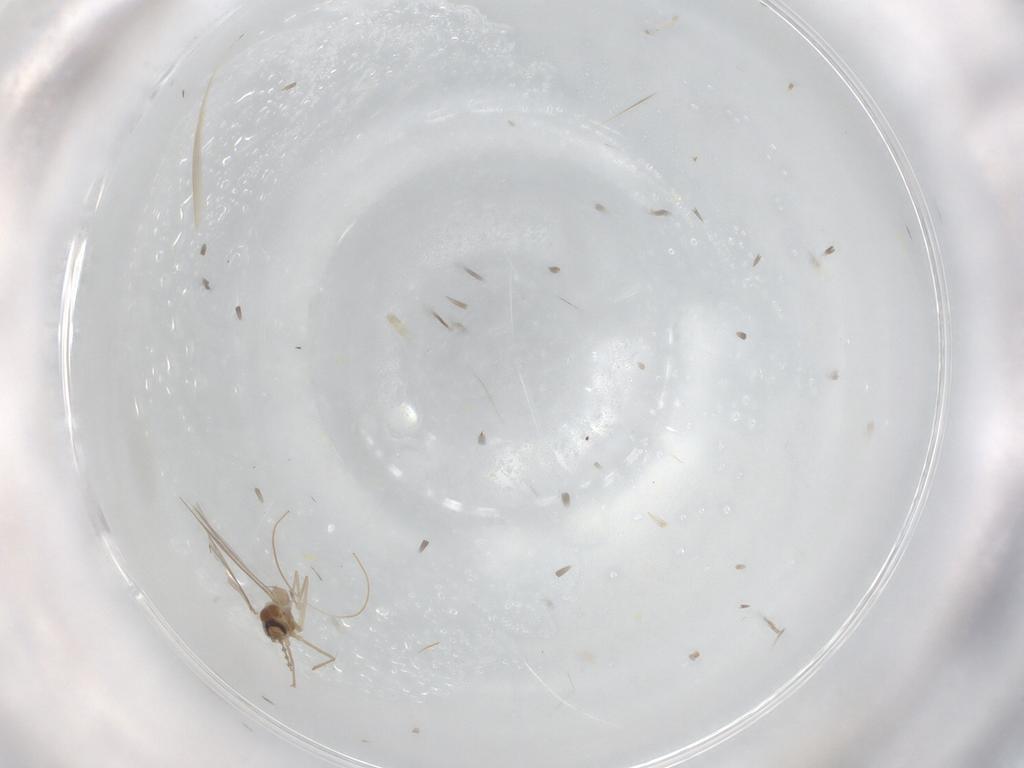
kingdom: Animalia
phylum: Arthropoda
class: Insecta
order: Diptera
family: Cecidomyiidae
